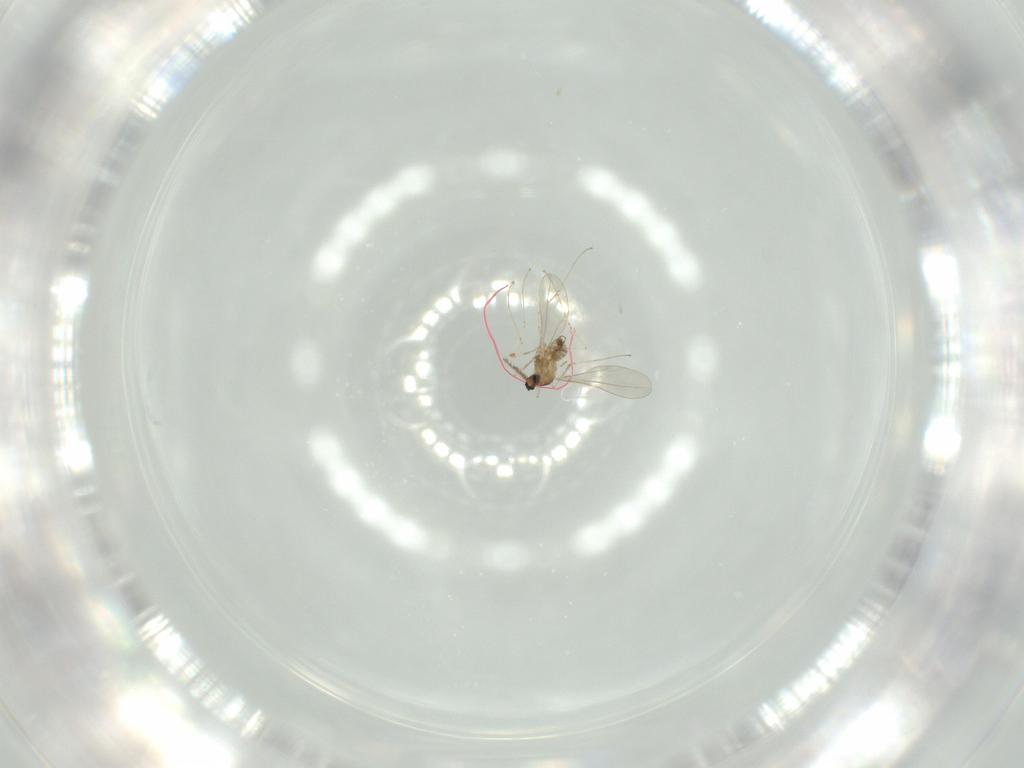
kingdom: Animalia
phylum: Arthropoda
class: Insecta
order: Diptera
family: Cecidomyiidae
